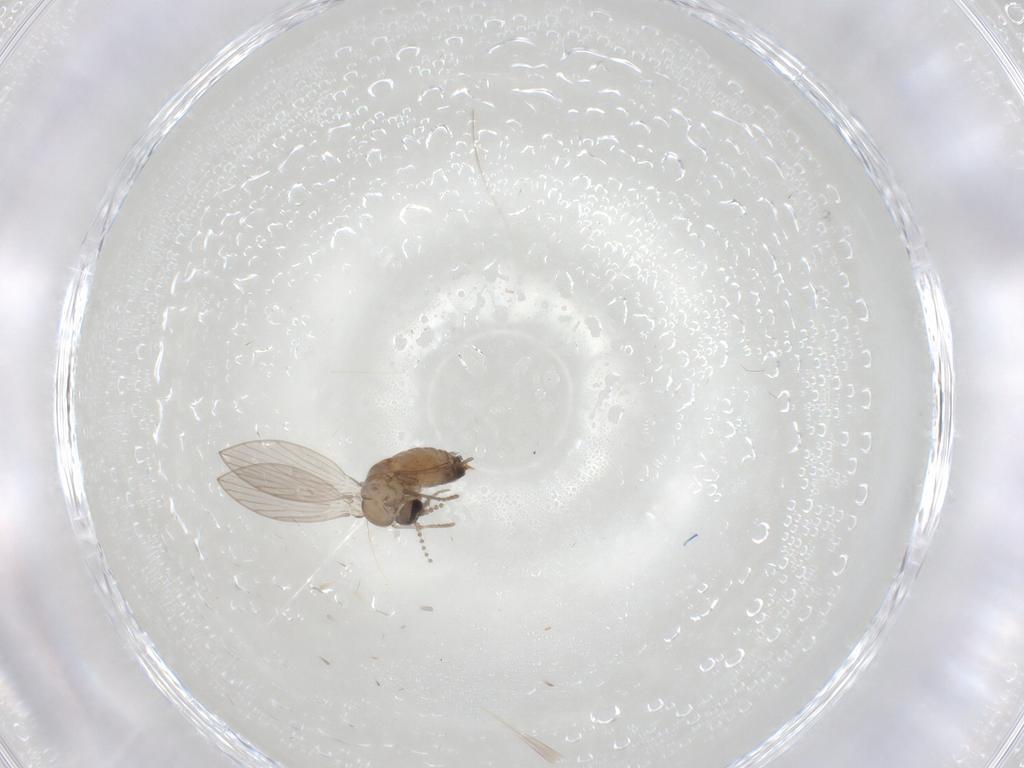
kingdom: Animalia
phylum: Arthropoda
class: Insecta
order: Diptera
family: Psychodidae
